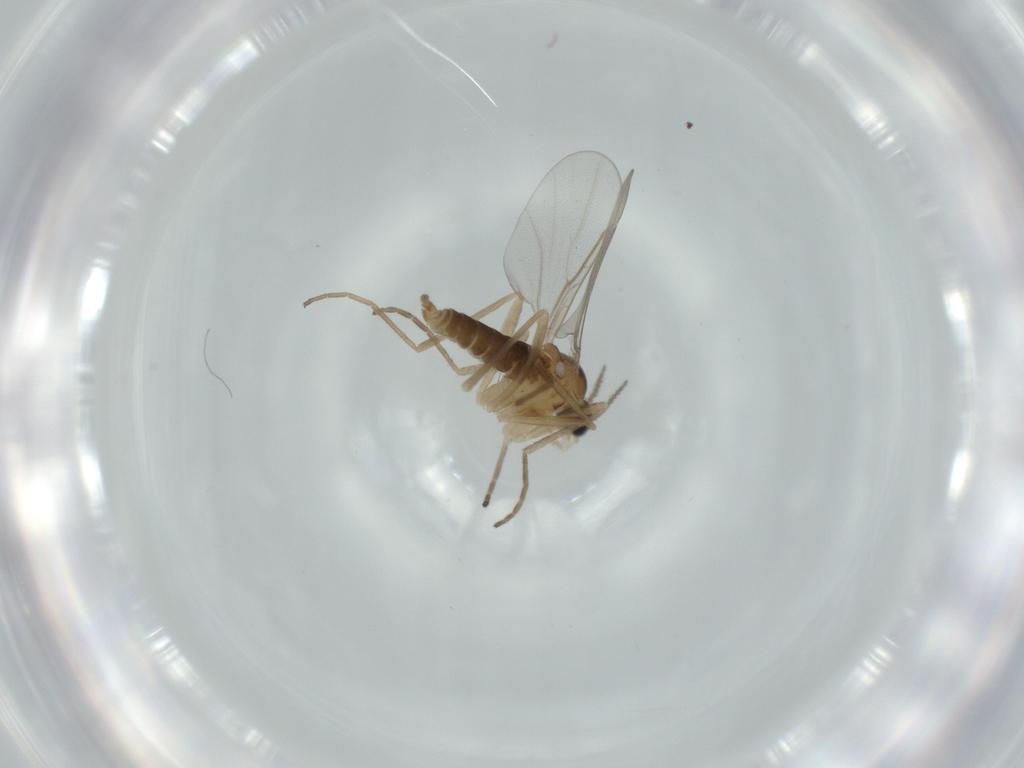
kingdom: Animalia
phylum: Arthropoda
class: Insecta
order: Diptera
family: Cecidomyiidae
